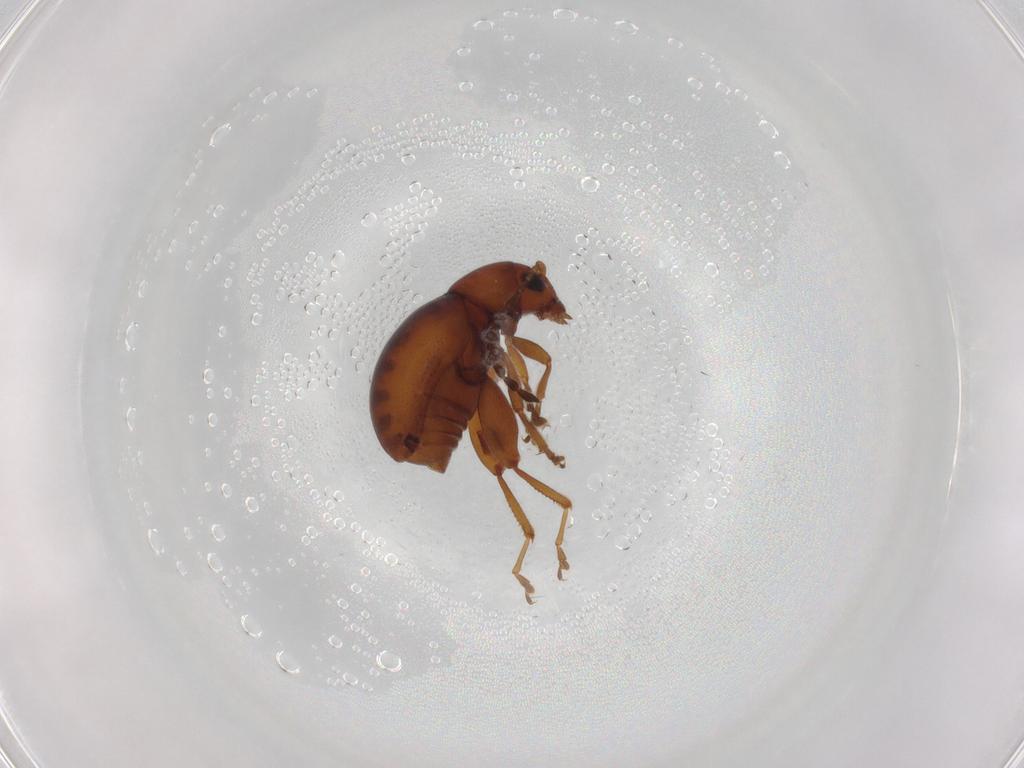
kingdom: Animalia
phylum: Arthropoda
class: Insecta
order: Coleoptera
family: Chrysomelidae
